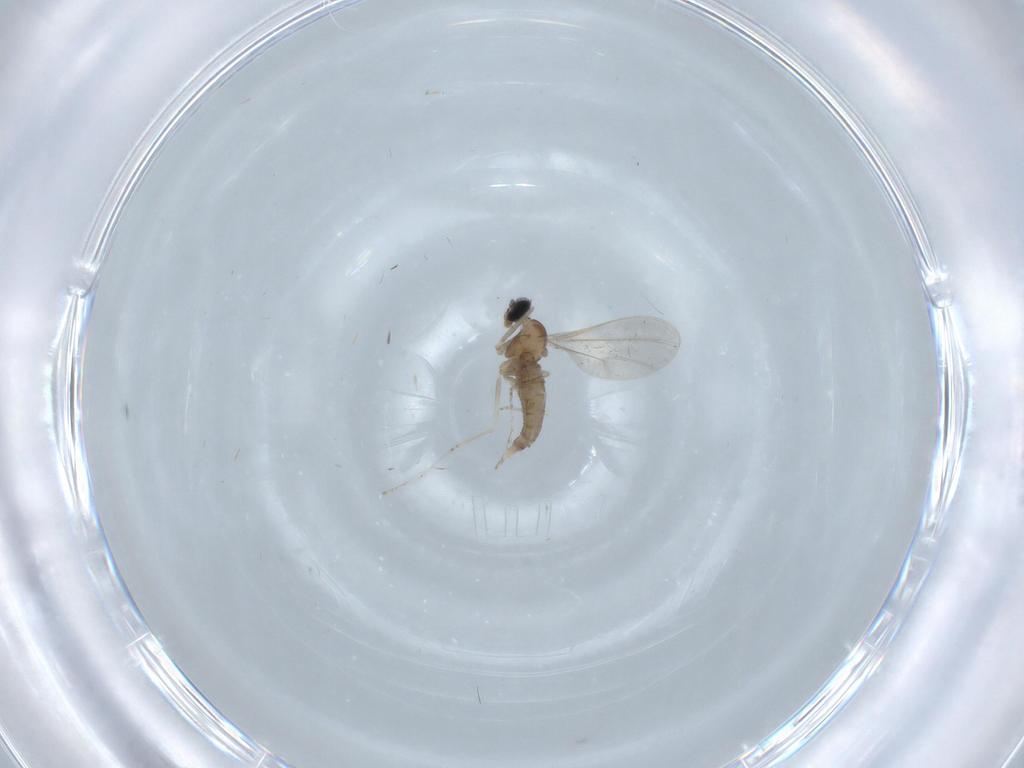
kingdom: Animalia
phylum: Arthropoda
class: Insecta
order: Diptera
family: Cecidomyiidae
